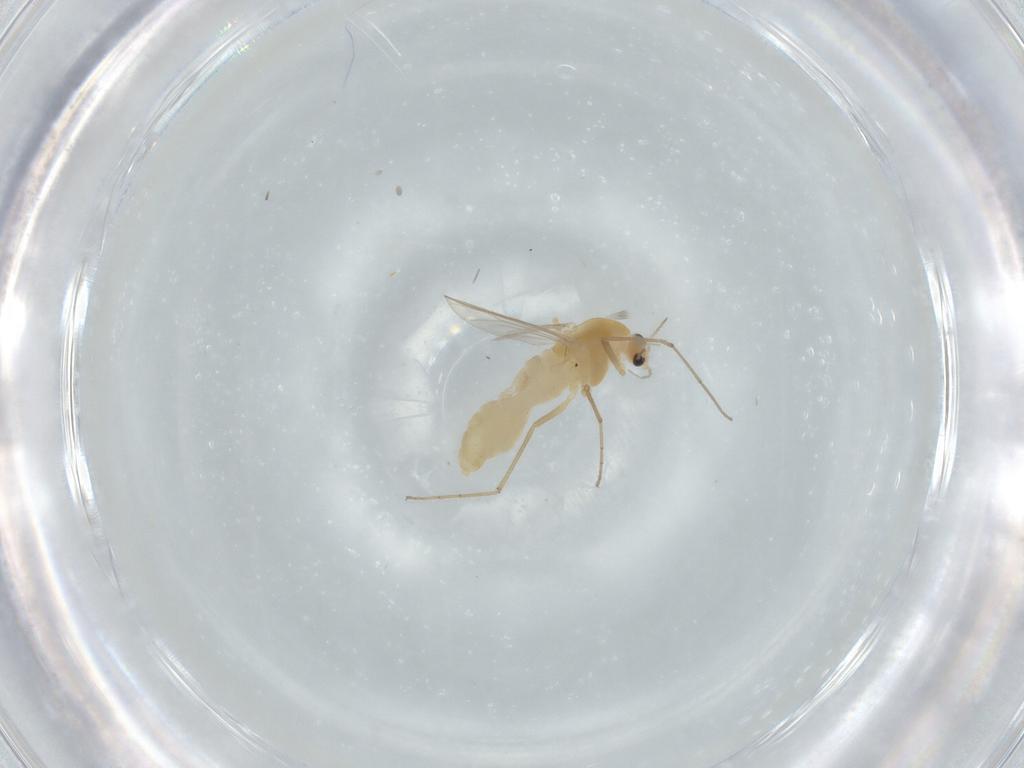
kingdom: Animalia
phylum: Arthropoda
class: Insecta
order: Diptera
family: Chironomidae
